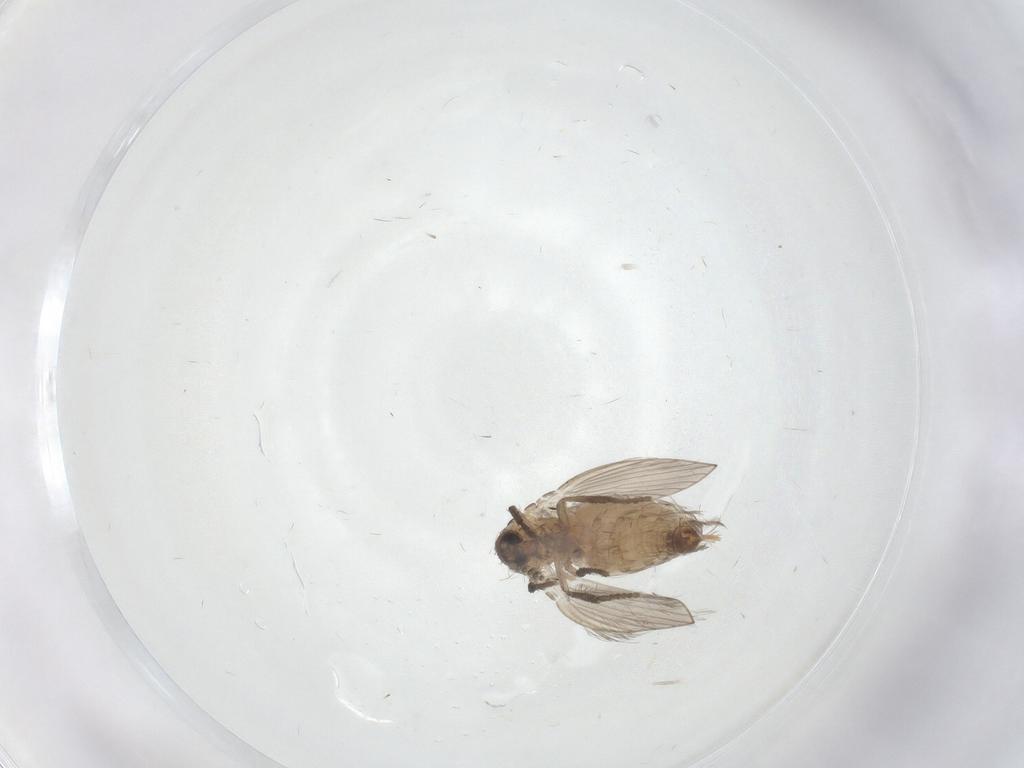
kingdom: Animalia
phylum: Arthropoda
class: Insecta
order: Diptera
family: Psychodidae
